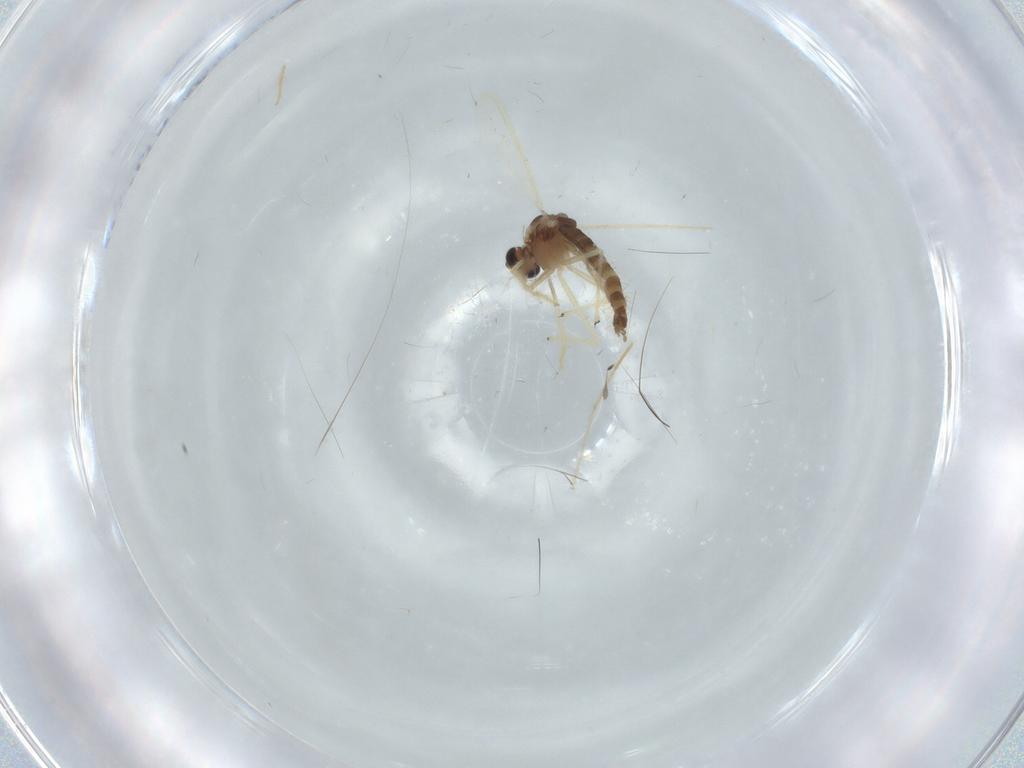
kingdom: Animalia
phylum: Arthropoda
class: Insecta
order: Diptera
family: Chironomidae
